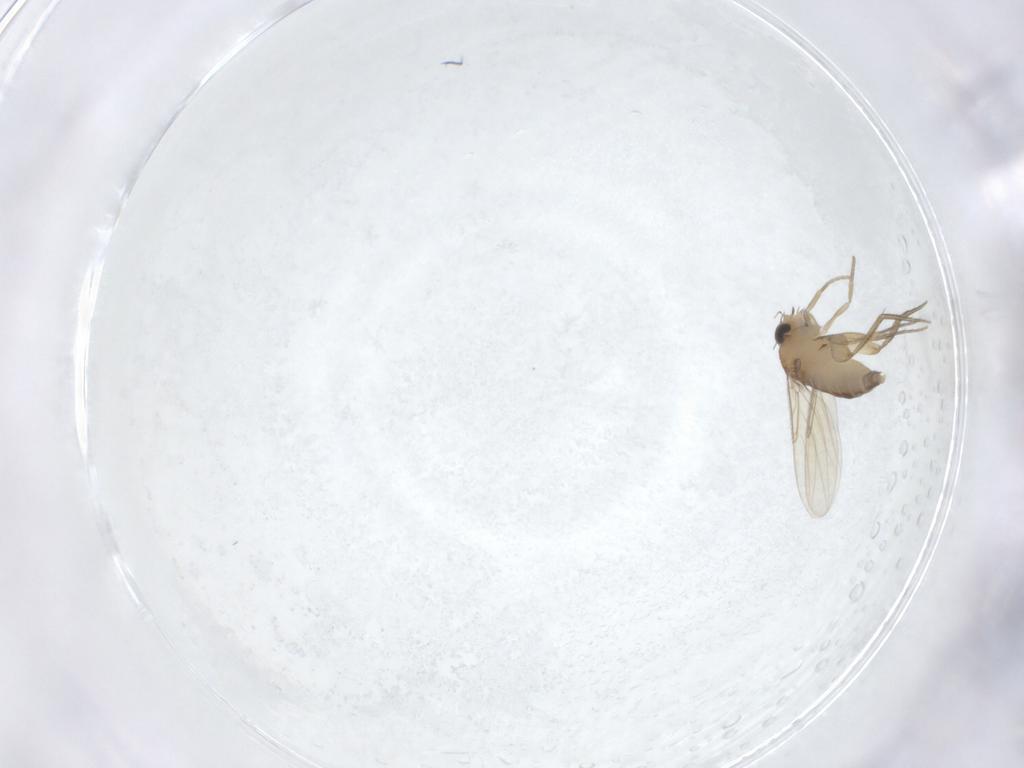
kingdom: Animalia
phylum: Arthropoda
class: Insecta
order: Diptera
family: Phoridae
